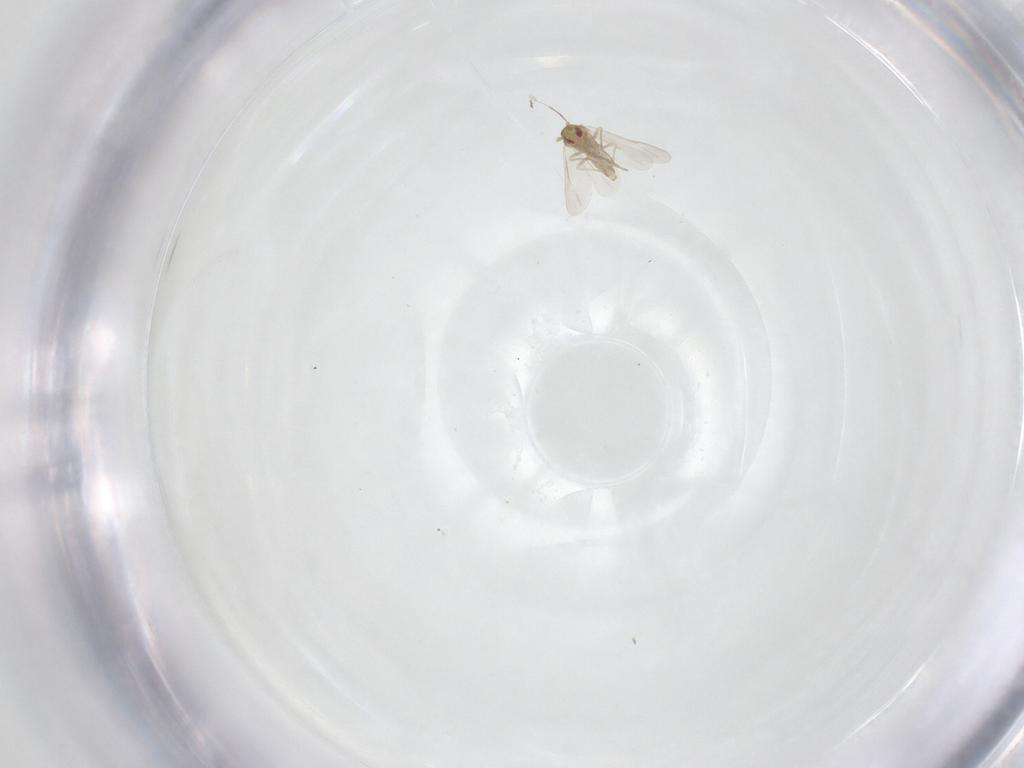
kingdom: Animalia
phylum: Arthropoda
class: Insecta
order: Hemiptera
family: Aleyrodidae
